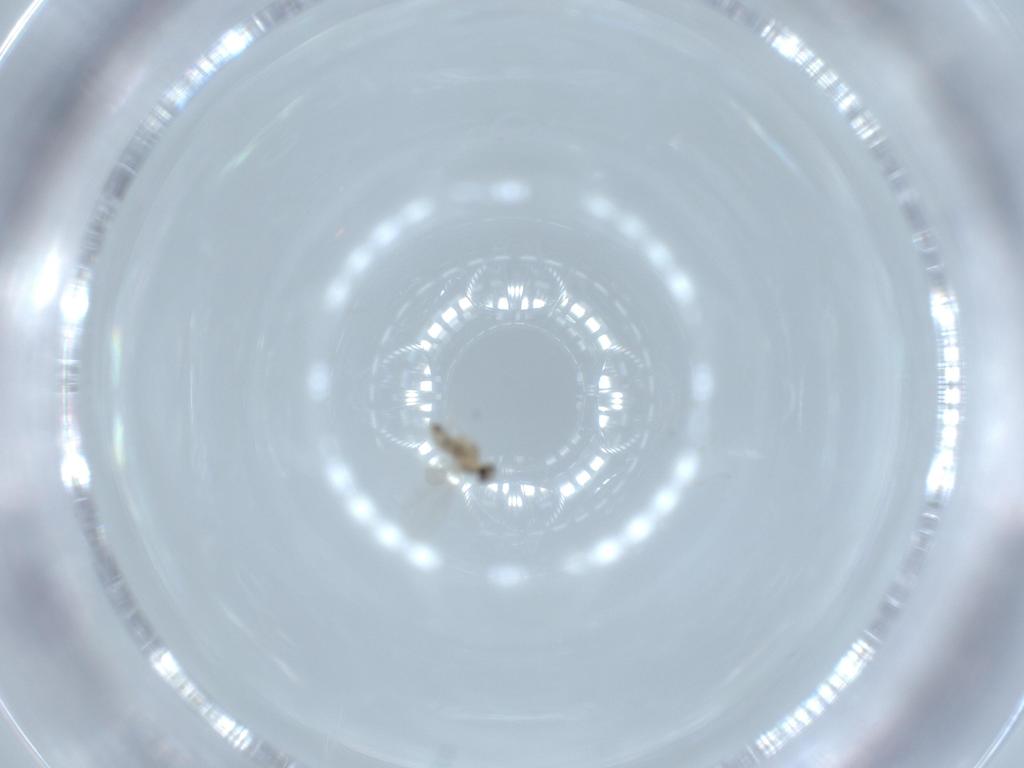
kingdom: Animalia
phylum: Arthropoda
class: Insecta
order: Diptera
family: Cecidomyiidae
